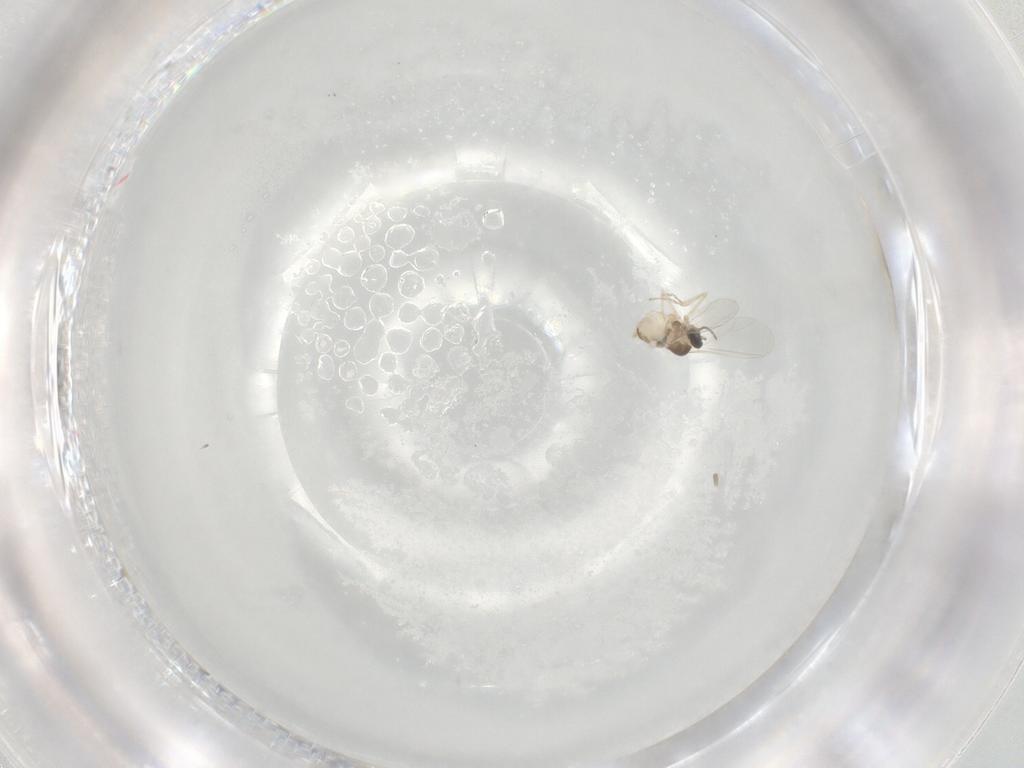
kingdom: Animalia
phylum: Arthropoda
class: Insecta
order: Diptera
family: Cecidomyiidae
